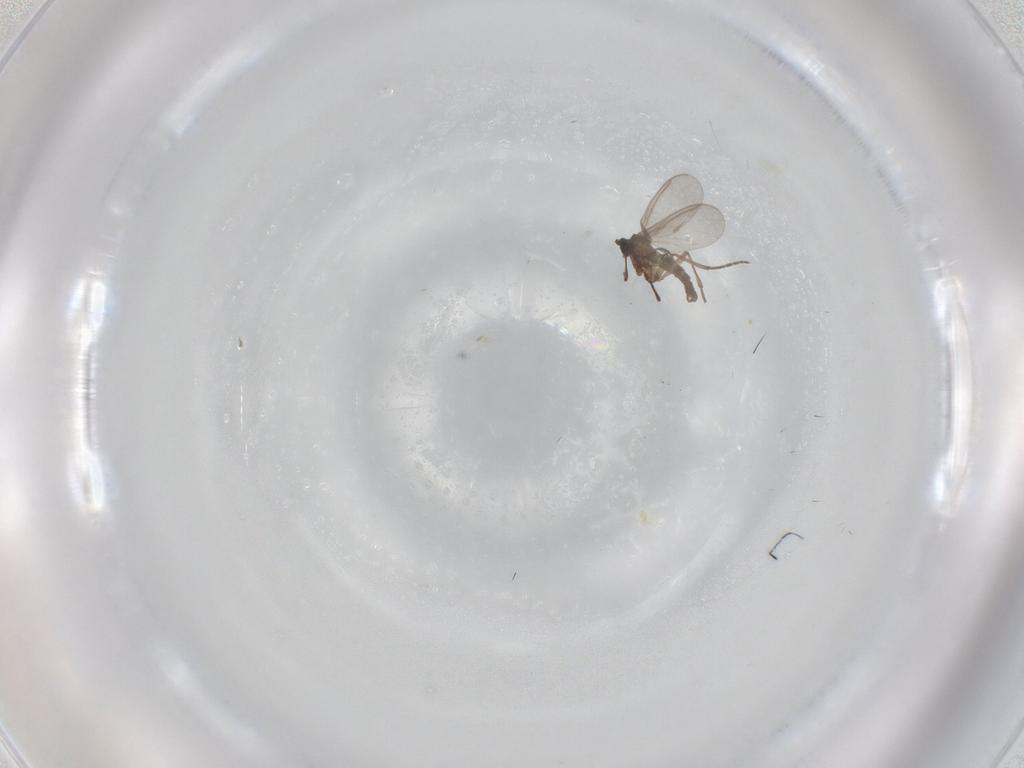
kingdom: Animalia
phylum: Arthropoda
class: Insecta
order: Diptera
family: Sciaridae
